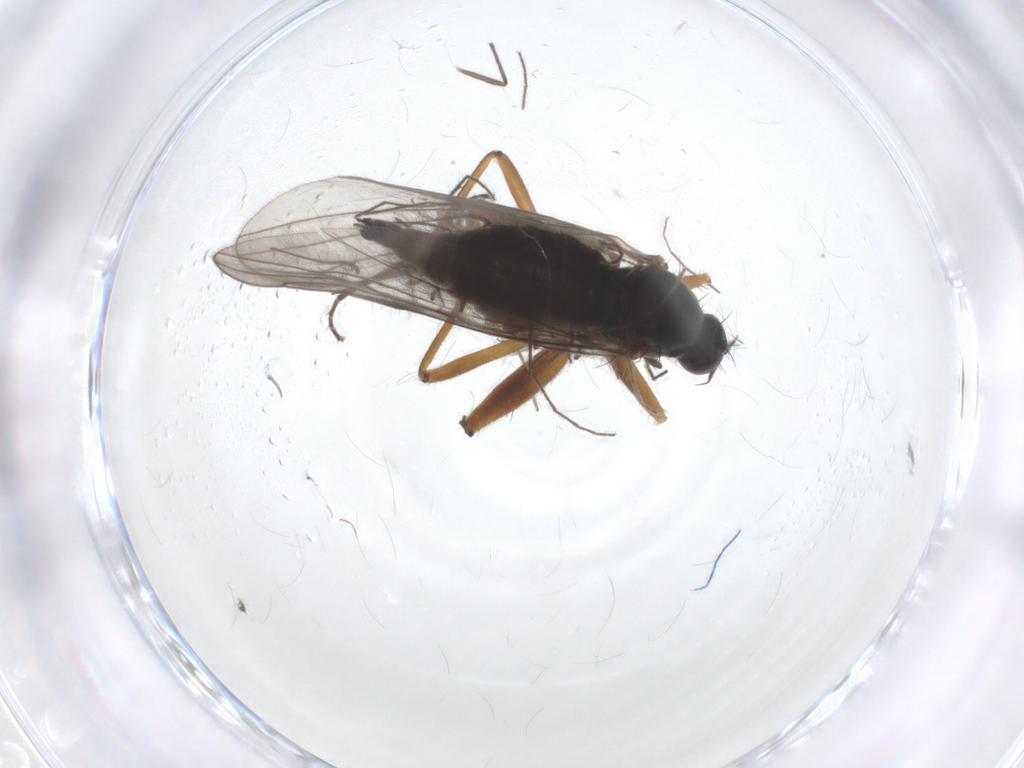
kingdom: Animalia
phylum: Arthropoda
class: Insecta
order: Diptera
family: Hybotidae
